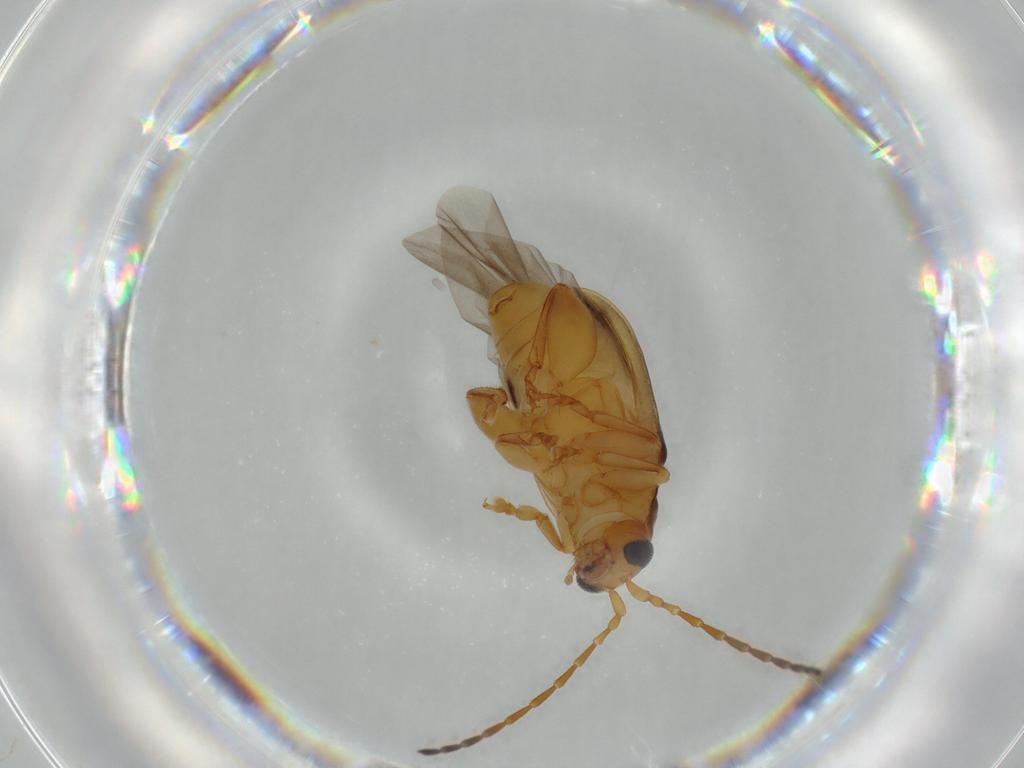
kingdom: Animalia
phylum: Arthropoda
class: Insecta
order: Coleoptera
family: Chrysomelidae
